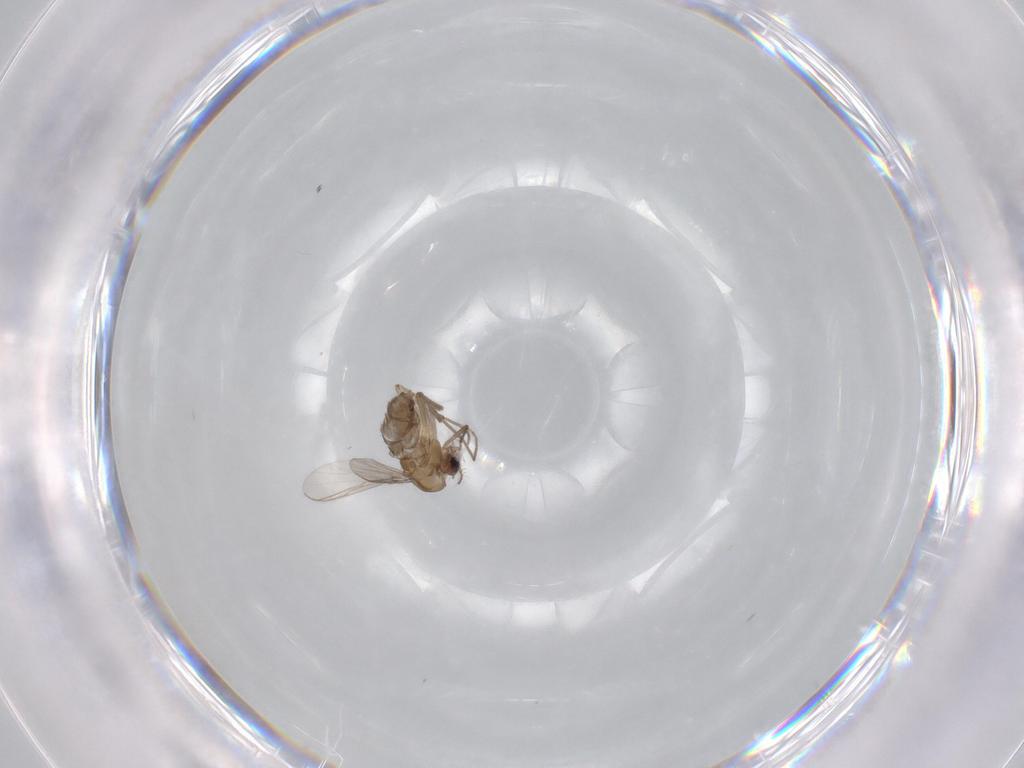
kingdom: Animalia
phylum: Arthropoda
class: Insecta
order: Diptera
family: Chironomidae
